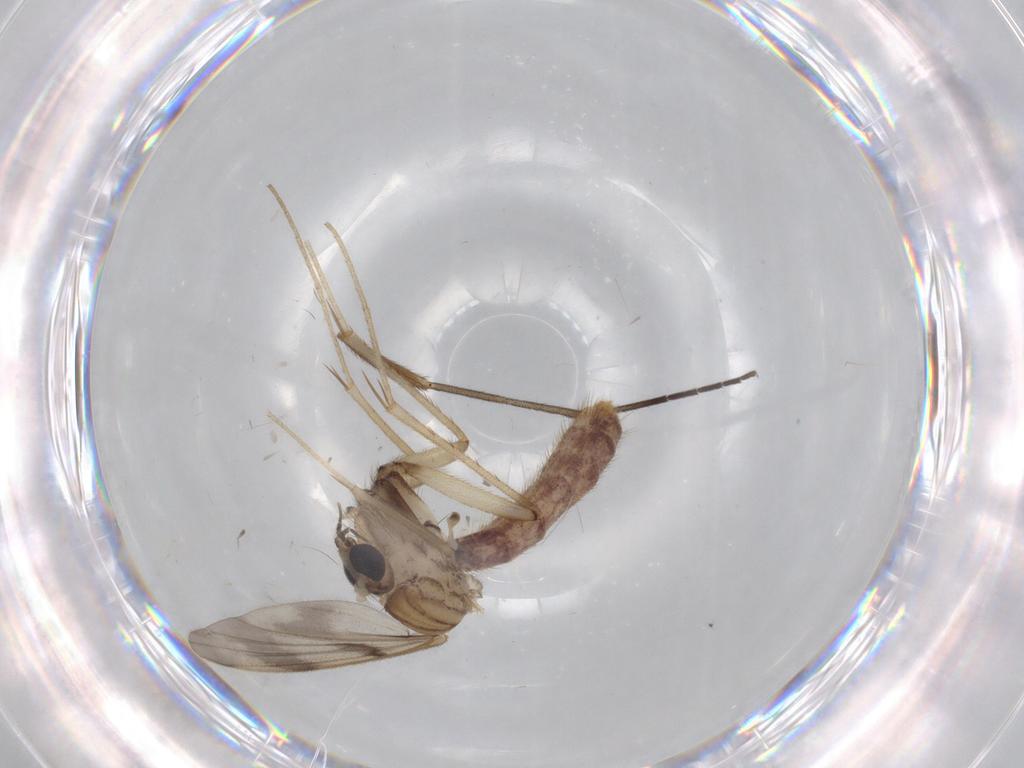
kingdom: Animalia
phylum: Arthropoda
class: Insecta
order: Diptera
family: Mycetophilidae
